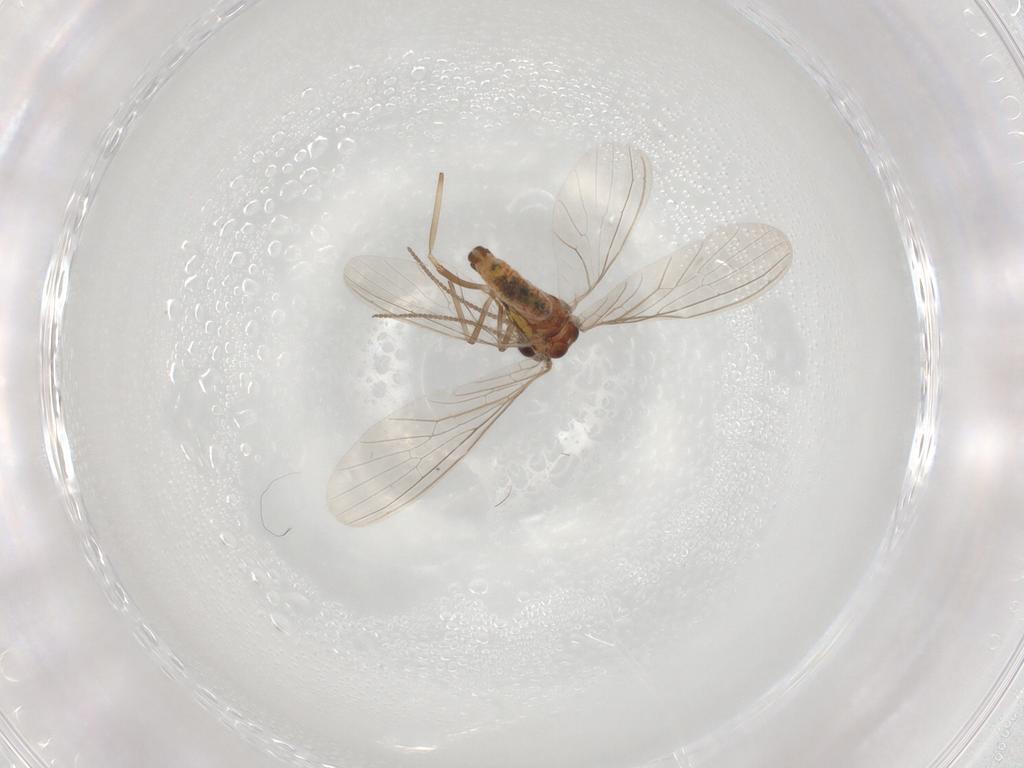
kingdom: Animalia
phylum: Arthropoda
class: Insecta
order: Neuroptera
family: Coniopterygidae
